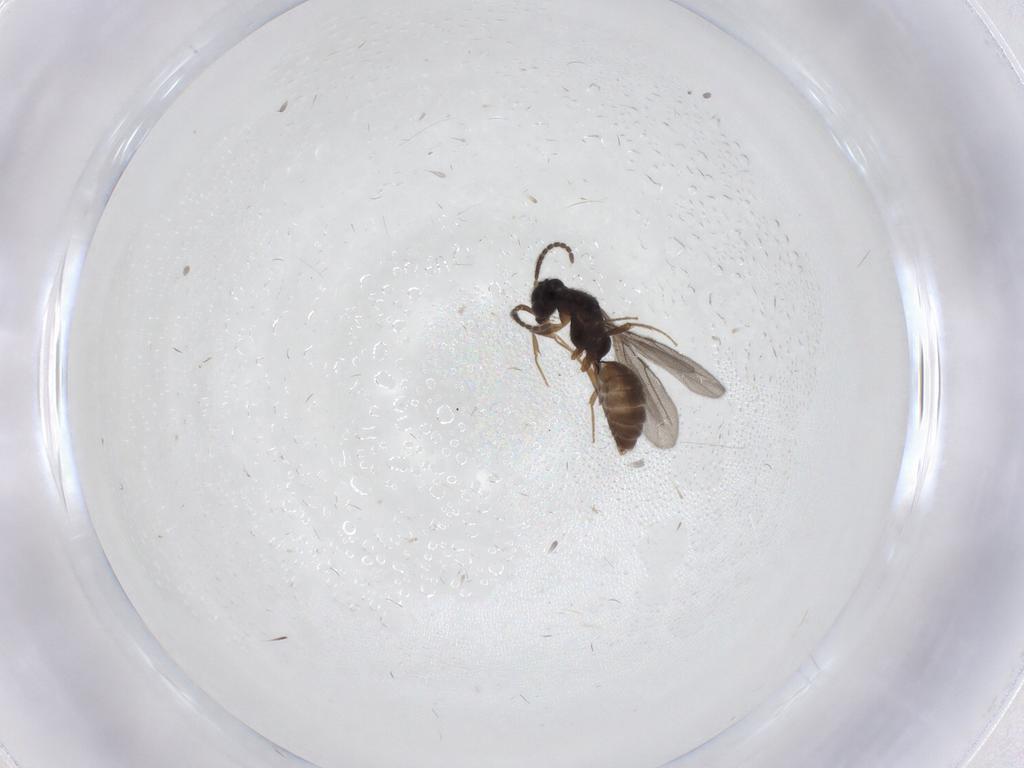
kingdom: Animalia
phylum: Arthropoda
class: Insecta
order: Hymenoptera
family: Bethylidae
